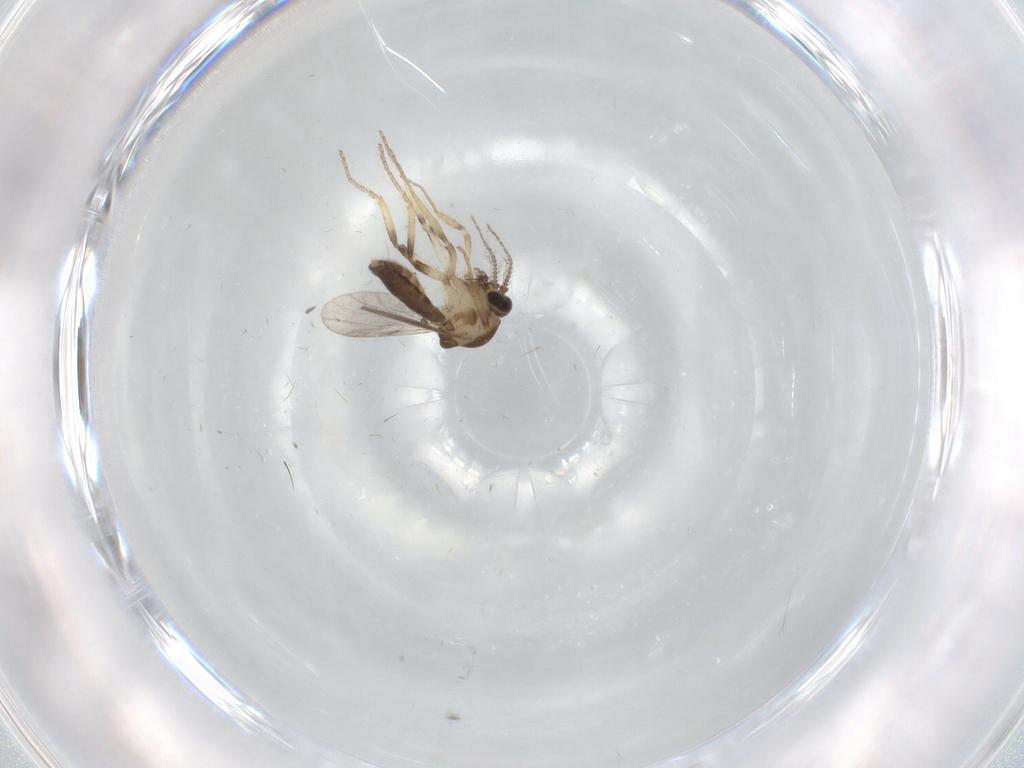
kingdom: Animalia
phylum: Arthropoda
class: Insecta
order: Diptera
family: Ceratopogonidae
